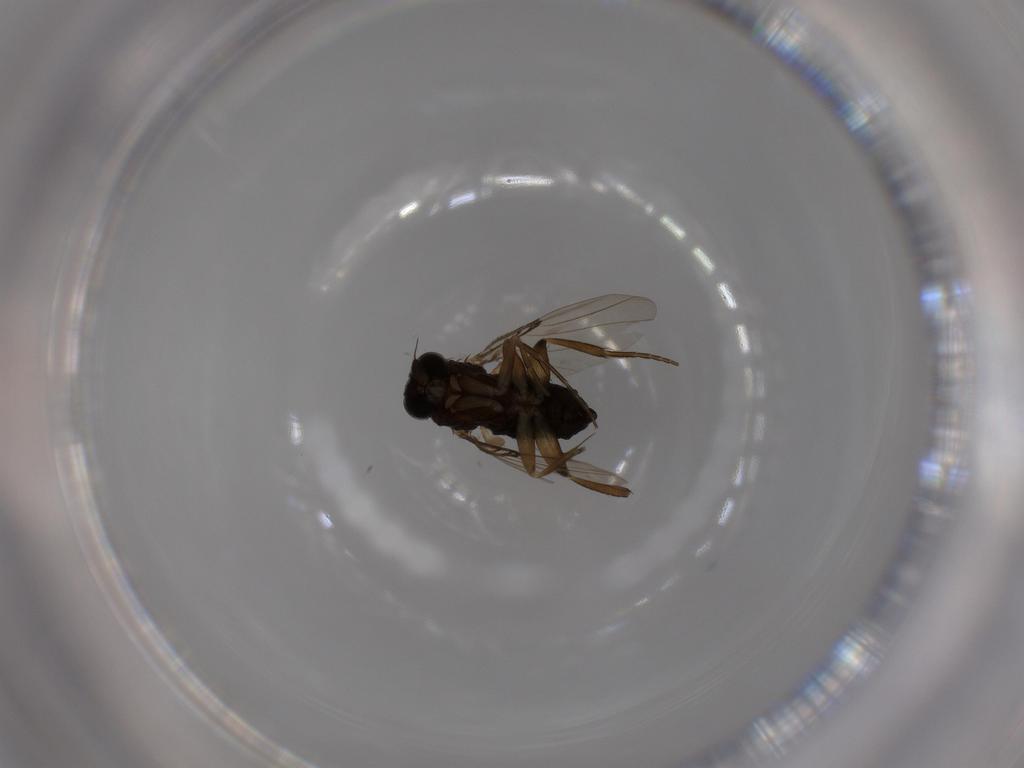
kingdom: Animalia
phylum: Arthropoda
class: Insecta
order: Diptera
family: Phoridae
